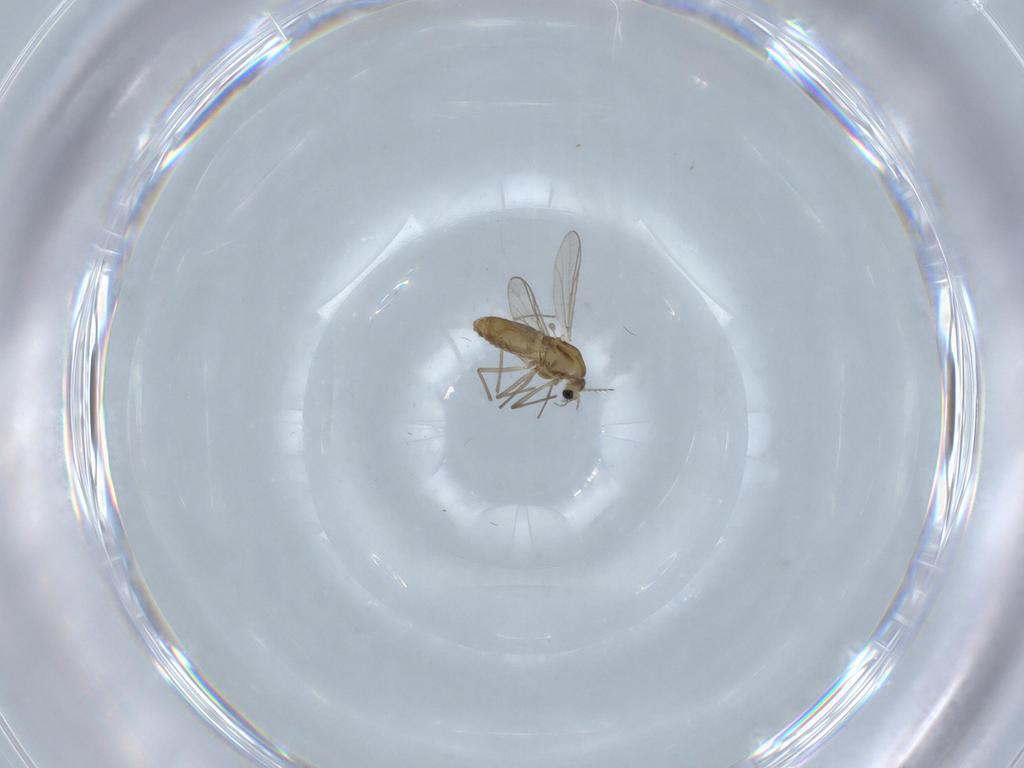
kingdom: Animalia
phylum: Arthropoda
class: Insecta
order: Diptera
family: Chironomidae
